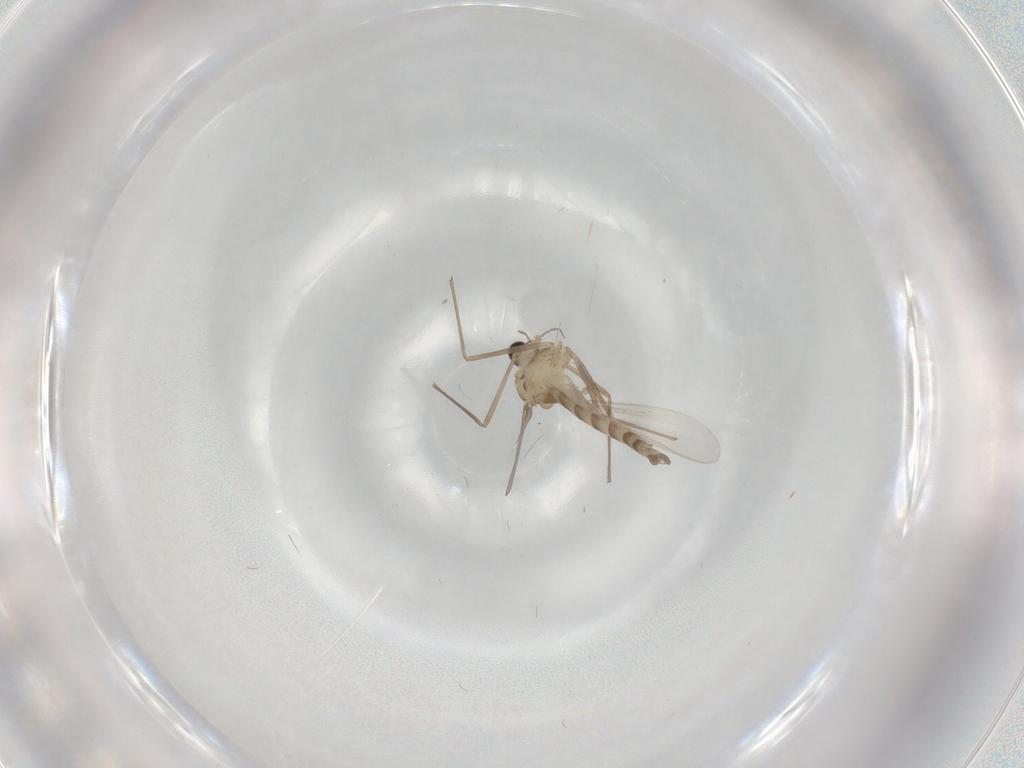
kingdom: Animalia
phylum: Arthropoda
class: Insecta
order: Diptera
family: Chironomidae
